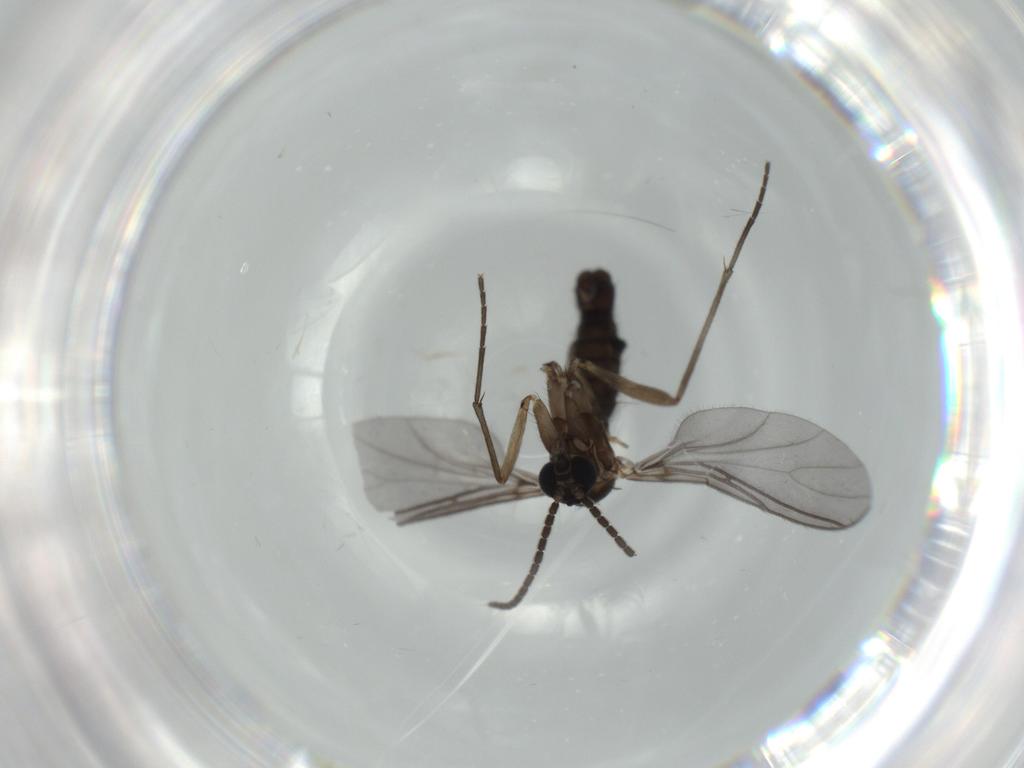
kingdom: Animalia
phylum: Arthropoda
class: Insecta
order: Diptera
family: Sciaridae
